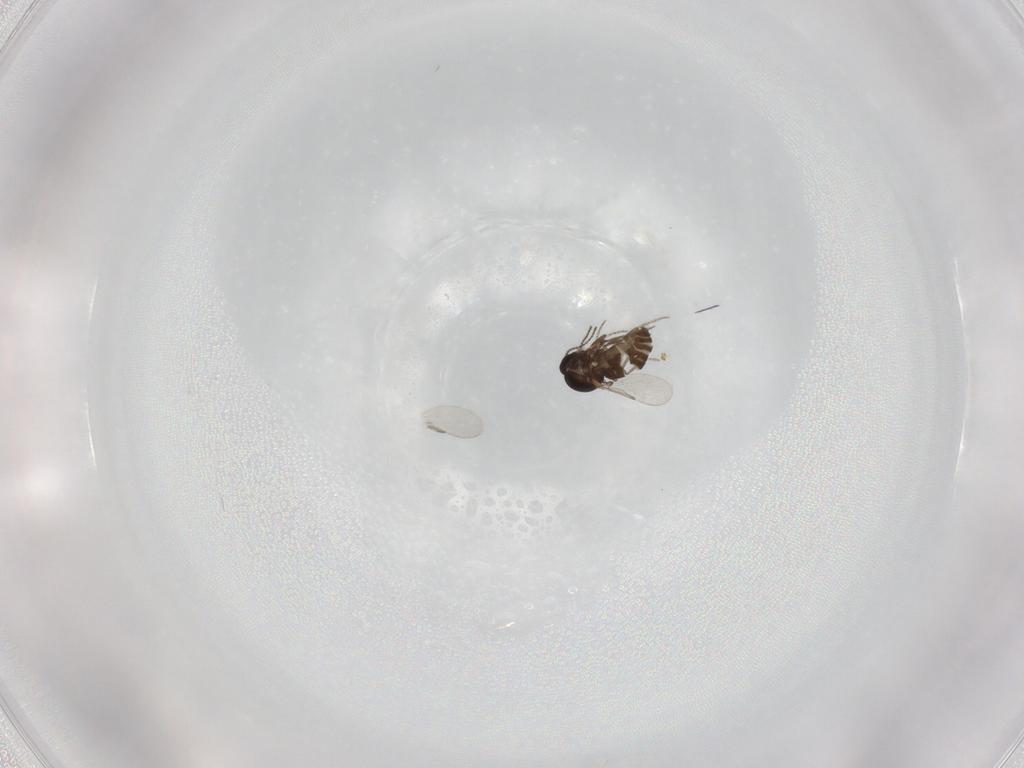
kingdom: Animalia
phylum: Arthropoda
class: Insecta
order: Diptera
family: Ceratopogonidae
